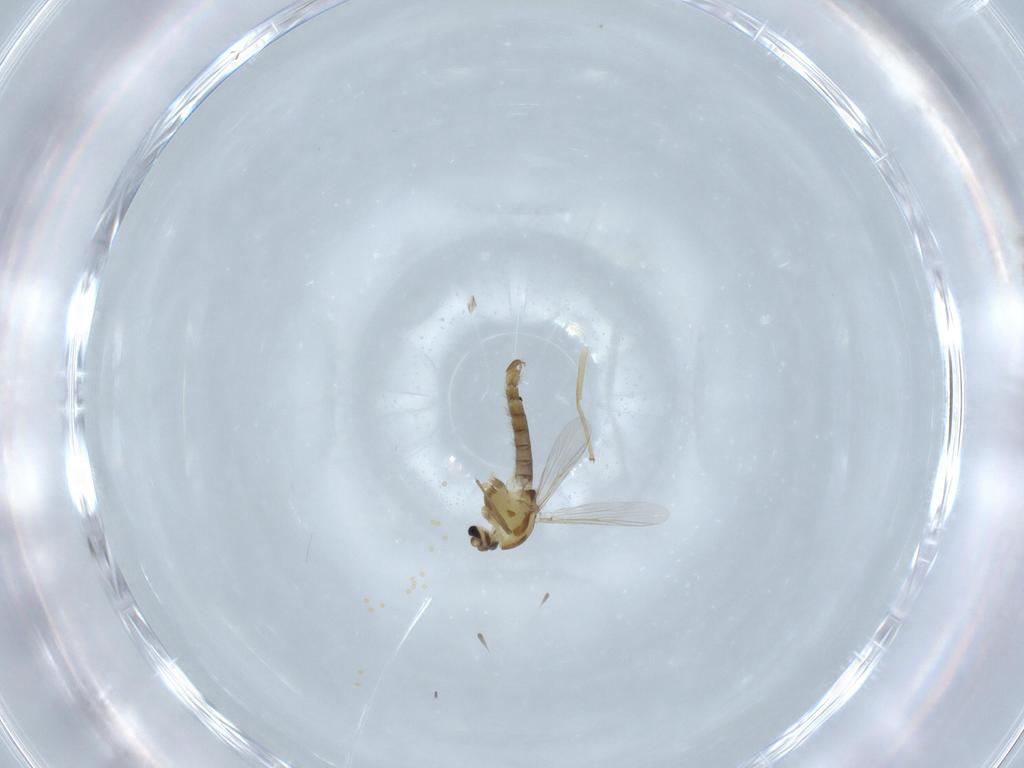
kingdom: Animalia
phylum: Arthropoda
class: Insecta
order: Diptera
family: Chironomidae
